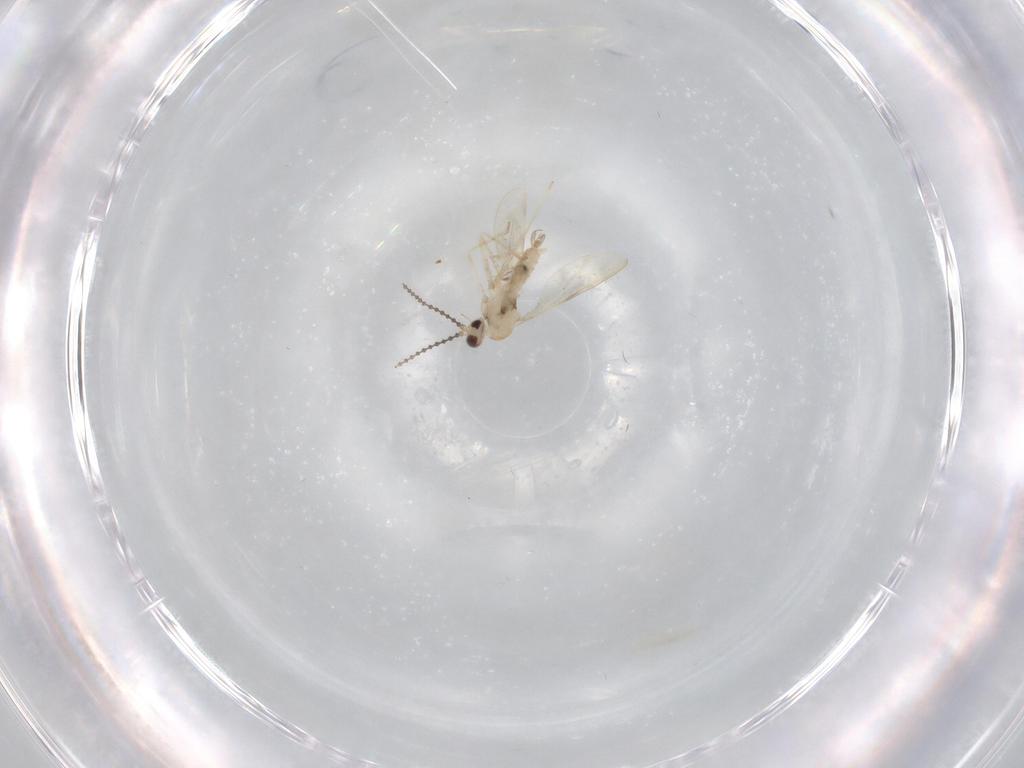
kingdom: Animalia
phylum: Arthropoda
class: Insecta
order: Diptera
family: Cecidomyiidae
